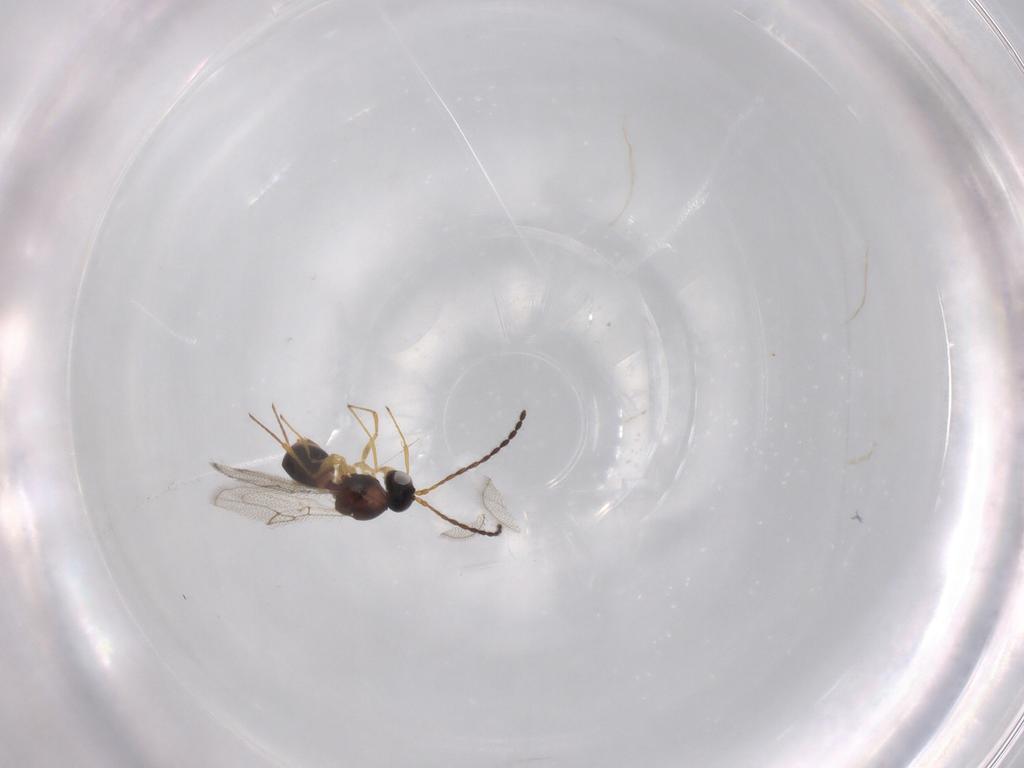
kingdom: Animalia
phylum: Arthropoda
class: Insecta
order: Hymenoptera
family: Figitidae
